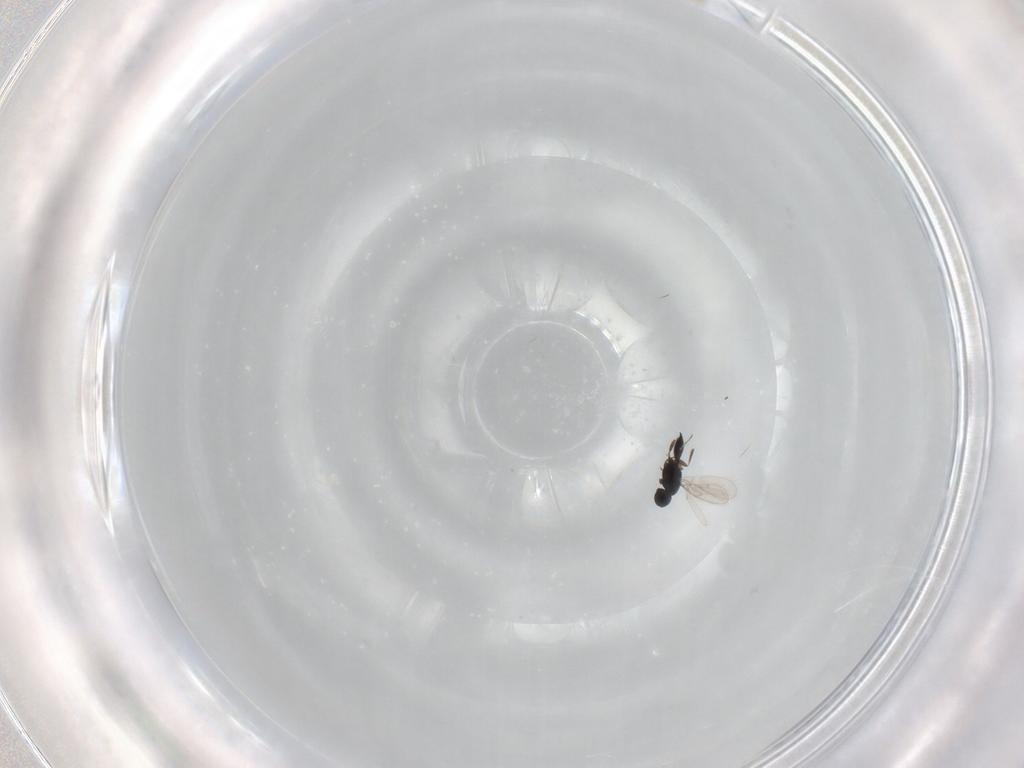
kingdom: Animalia
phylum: Arthropoda
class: Insecta
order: Hymenoptera
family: Scelionidae
